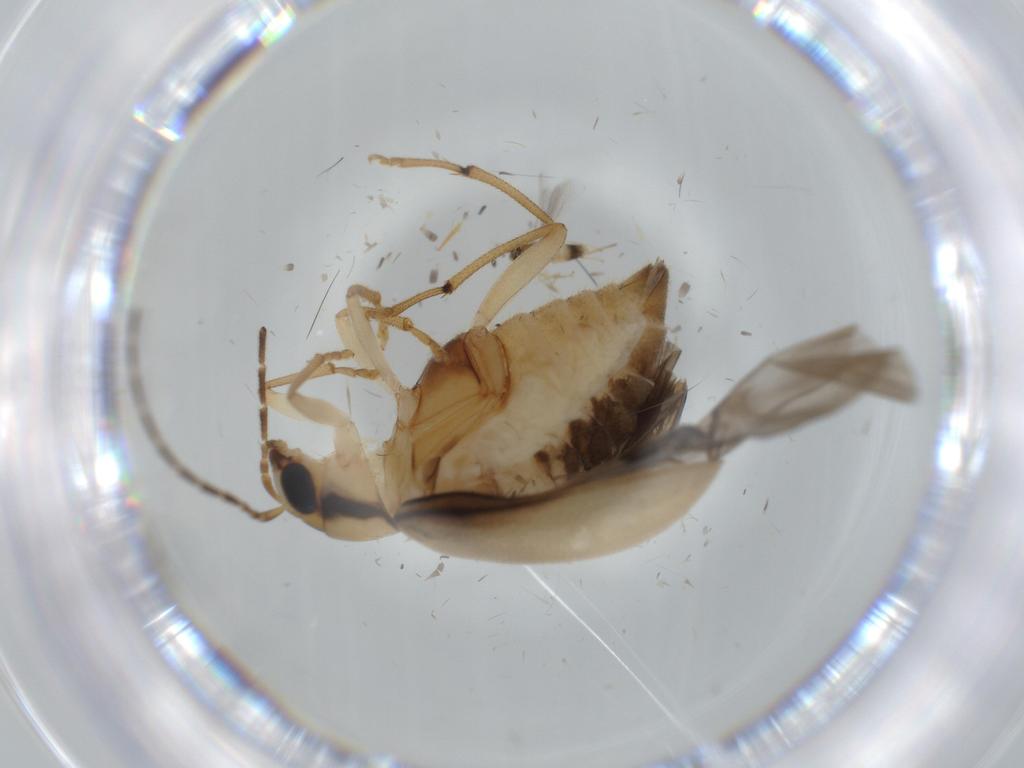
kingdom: Animalia
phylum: Arthropoda
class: Insecta
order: Coleoptera
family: Chrysomelidae
